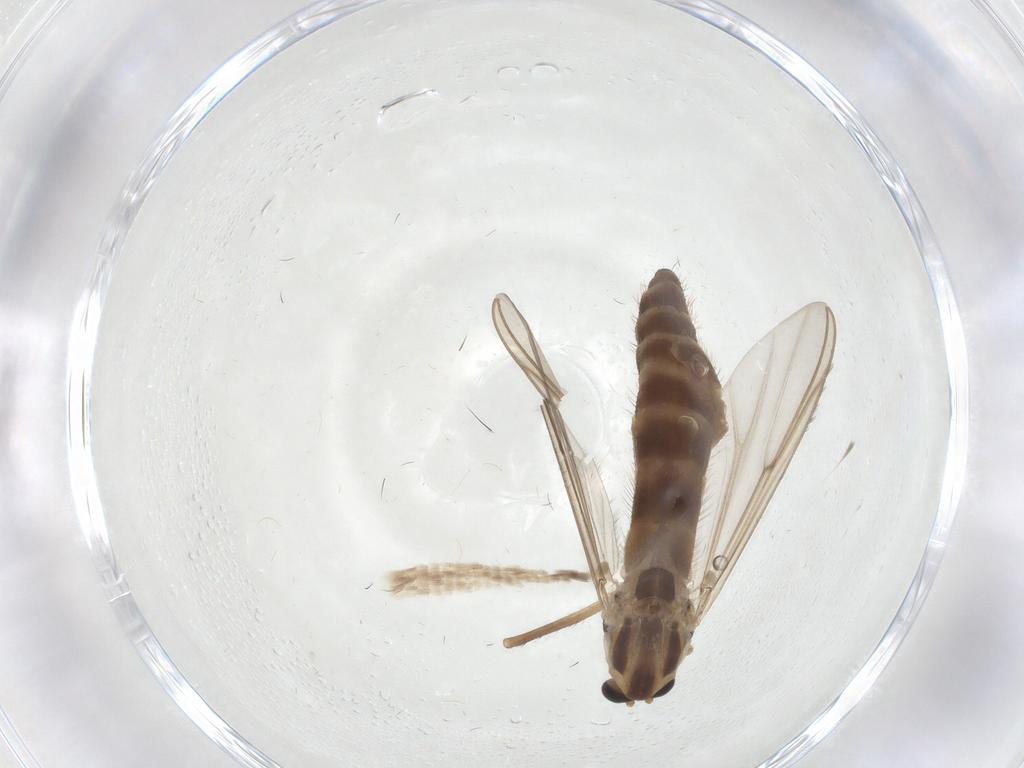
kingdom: Animalia
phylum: Arthropoda
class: Insecta
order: Diptera
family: Chironomidae
